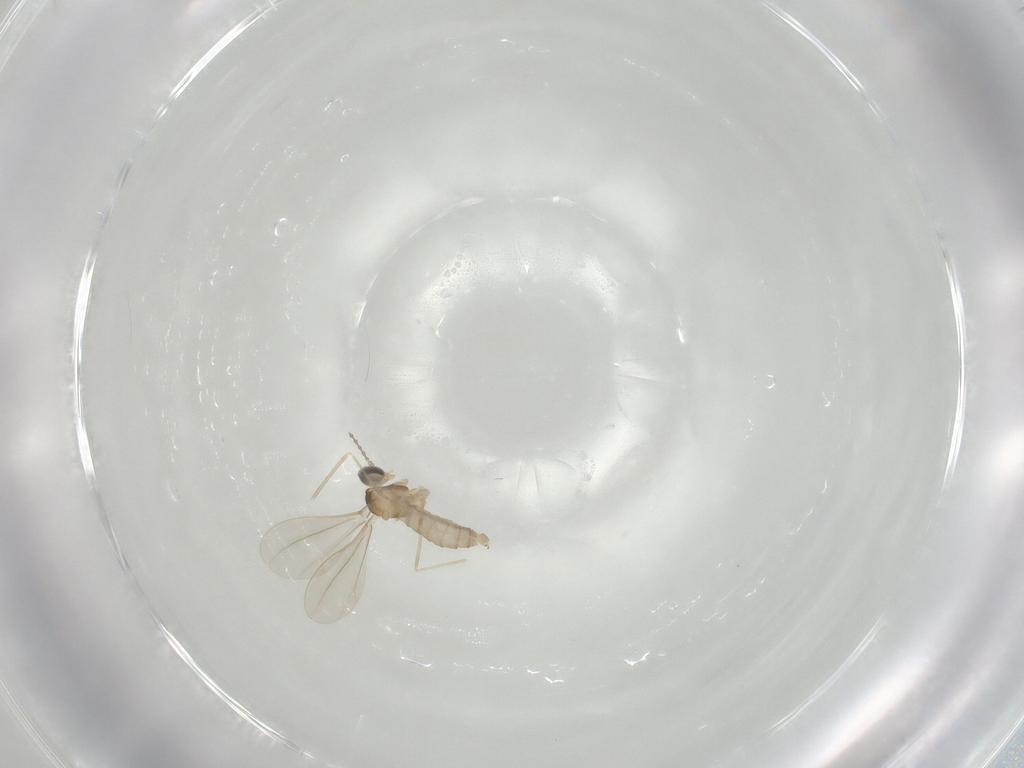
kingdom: Animalia
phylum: Arthropoda
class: Insecta
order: Diptera
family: Cecidomyiidae
